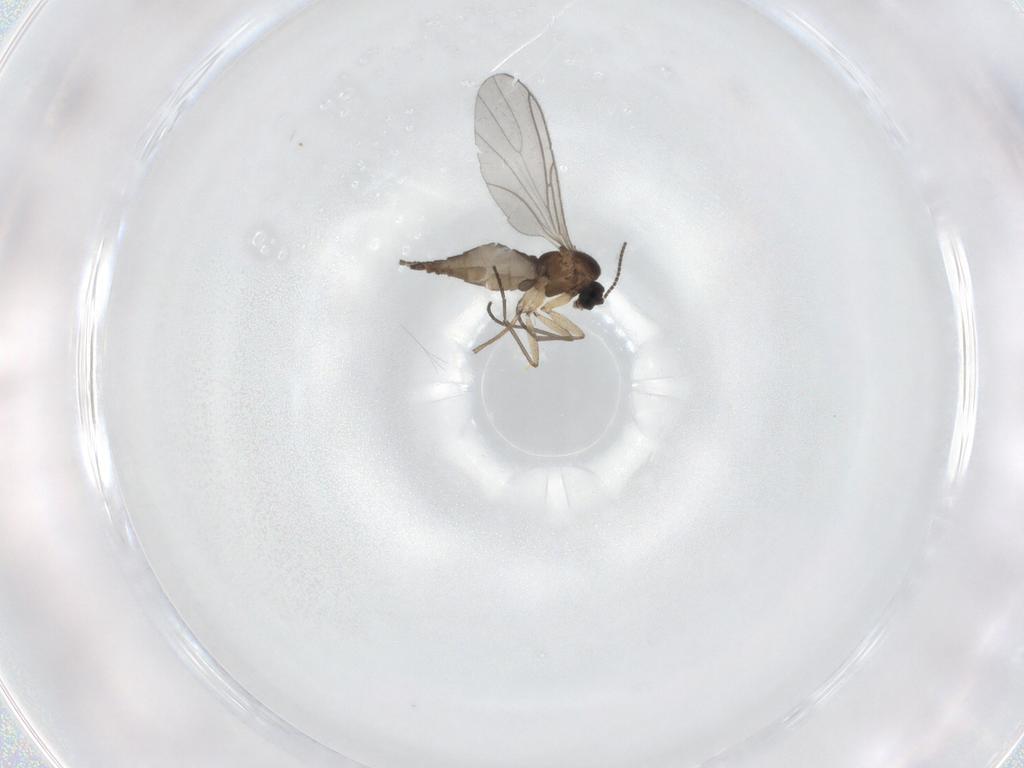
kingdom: Animalia
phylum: Arthropoda
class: Insecta
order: Diptera
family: Sciaridae
